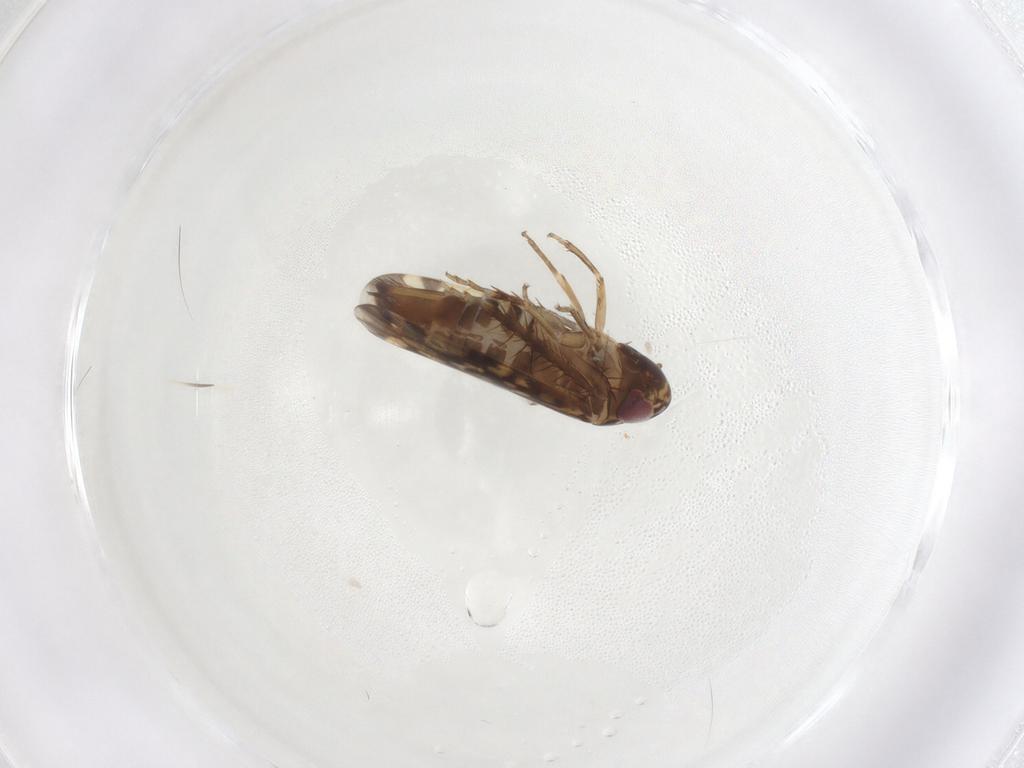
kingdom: Animalia
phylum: Arthropoda
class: Insecta
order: Hemiptera
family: Cicadellidae
